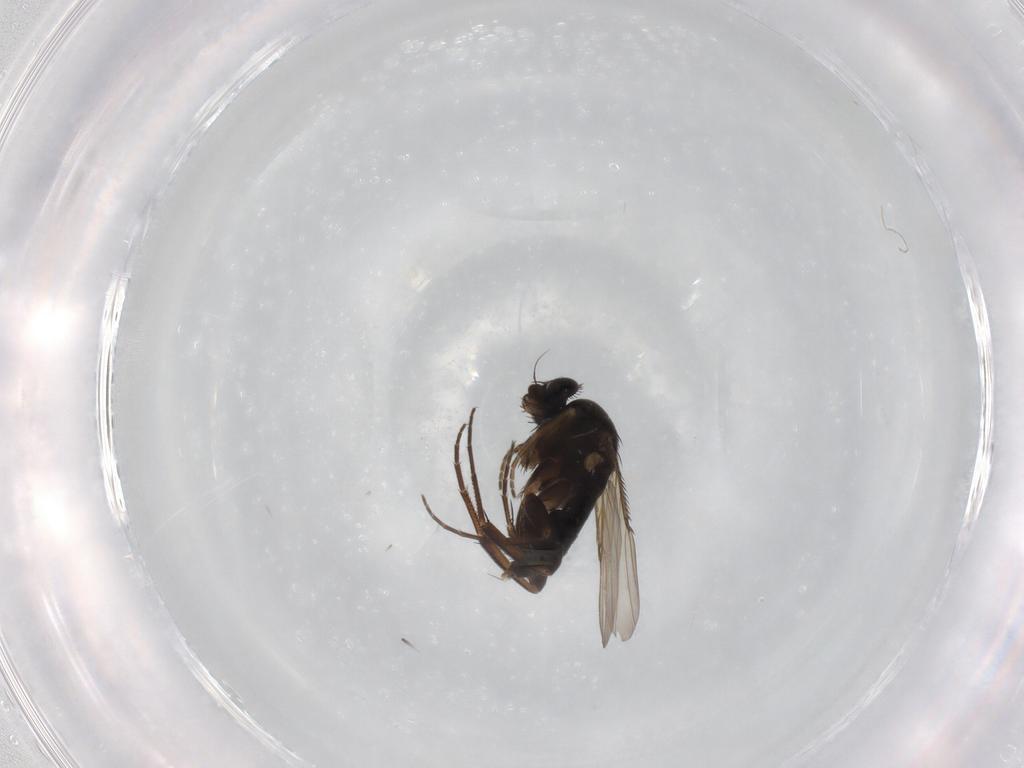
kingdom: Animalia
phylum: Arthropoda
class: Insecta
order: Diptera
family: Phoridae
